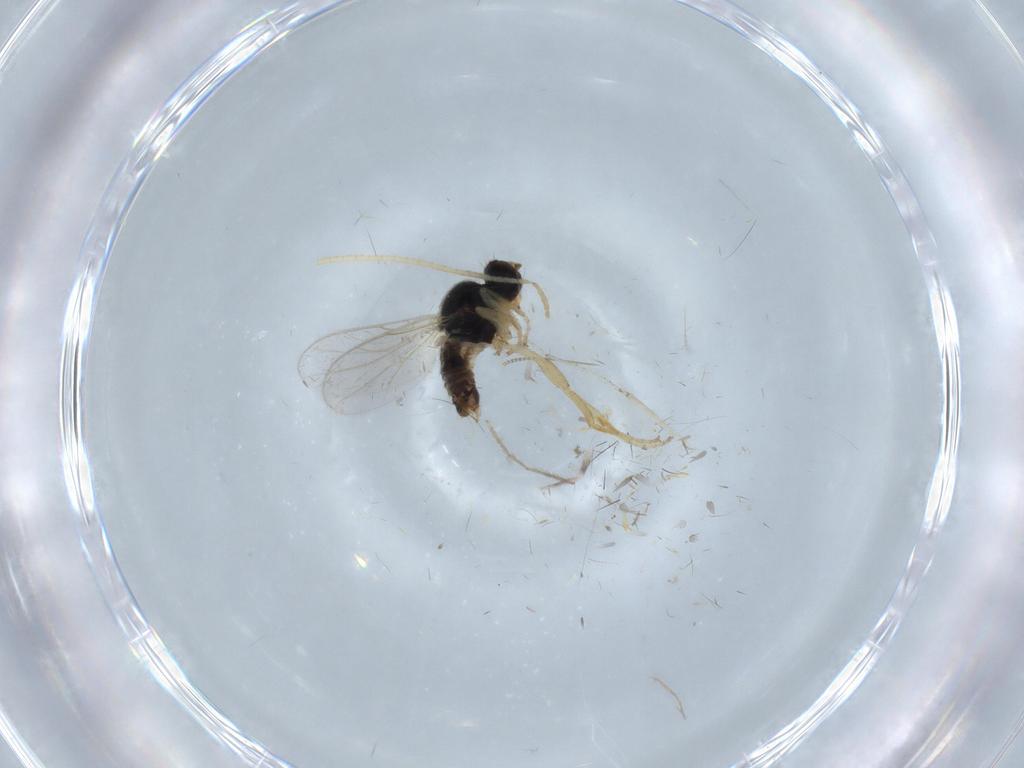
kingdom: Animalia
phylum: Arthropoda
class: Insecta
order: Diptera
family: Hybotidae
